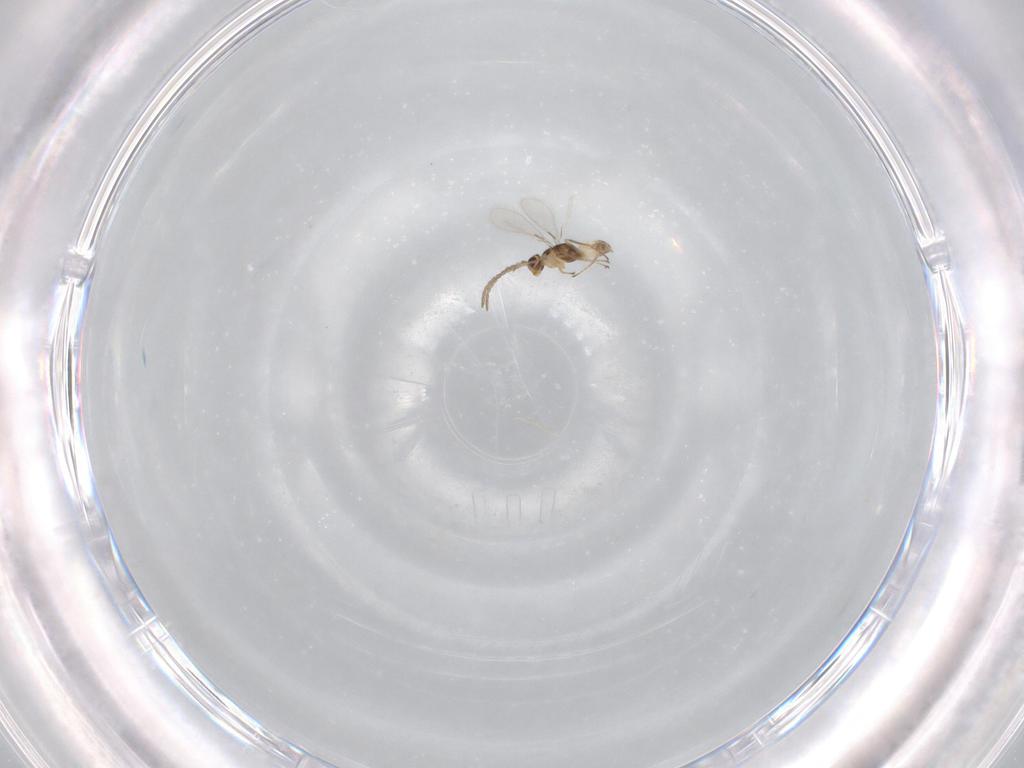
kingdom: Animalia
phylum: Arthropoda
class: Insecta
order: Hymenoptera
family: Mymaridae
